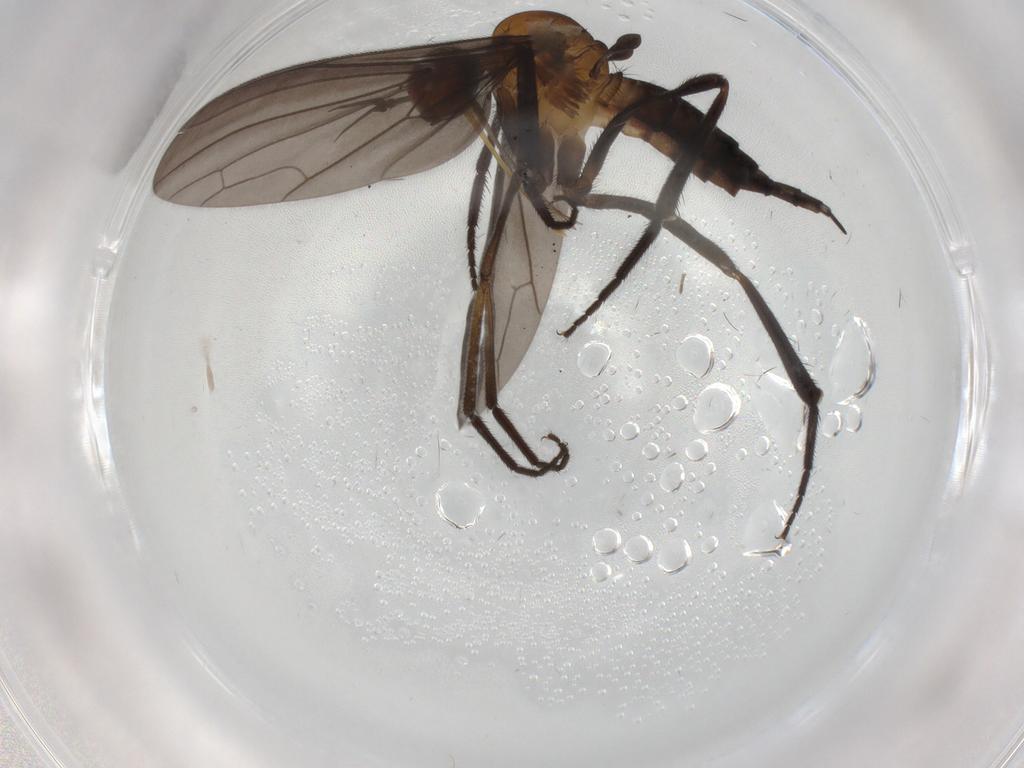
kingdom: Animalia
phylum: Arthropoda
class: Insecta
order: Diptera
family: Empididae
